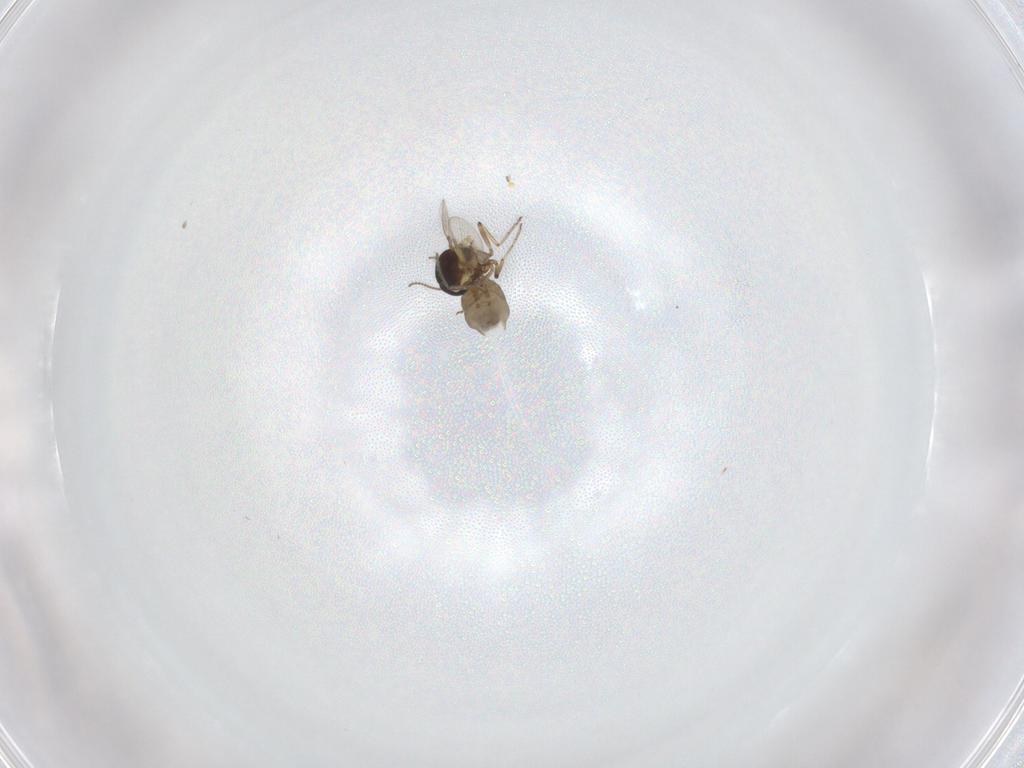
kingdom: Animalia
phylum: Arthropoda
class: Insecta
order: Diptera
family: Ceratopogonidae
